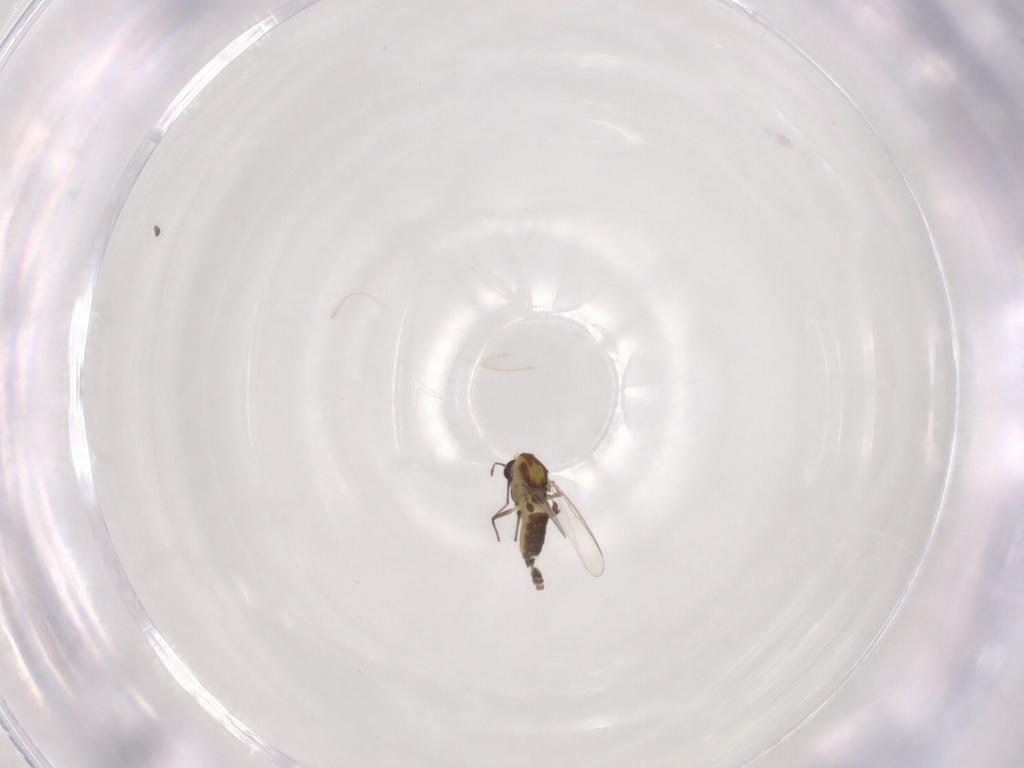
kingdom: Animalia
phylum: Arthropoda
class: Insecta
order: Diptera
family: Chironomidae
